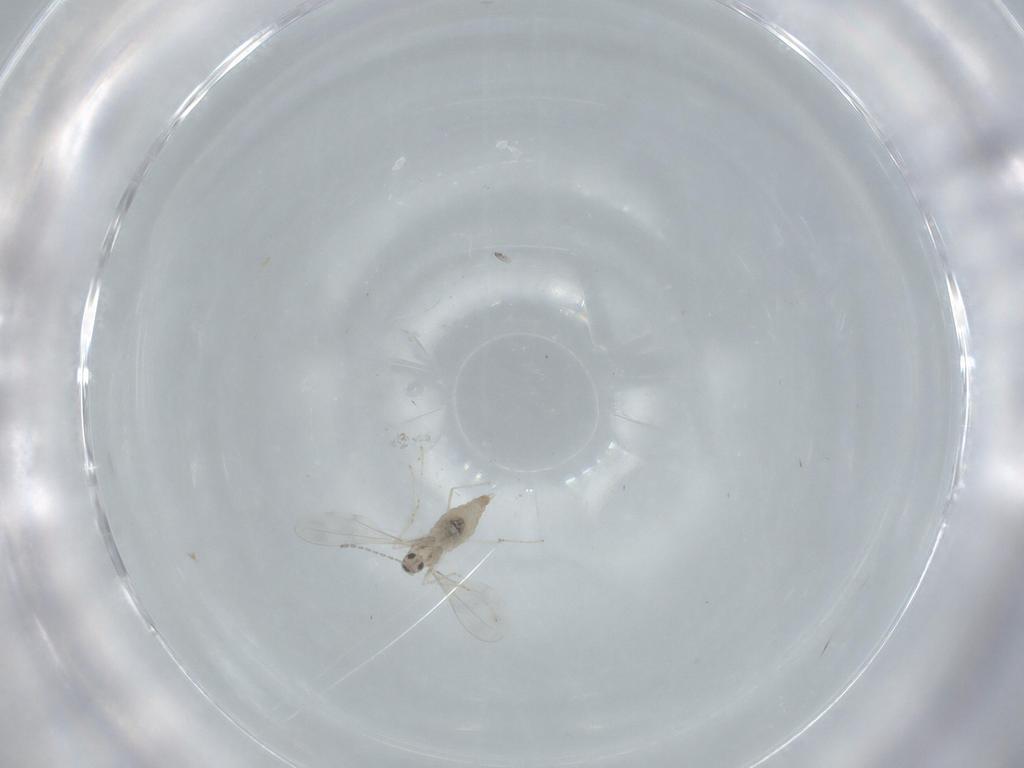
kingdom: Animalia
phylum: Arthropoda
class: Insecta
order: Diptera
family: Cecidomyiidae
